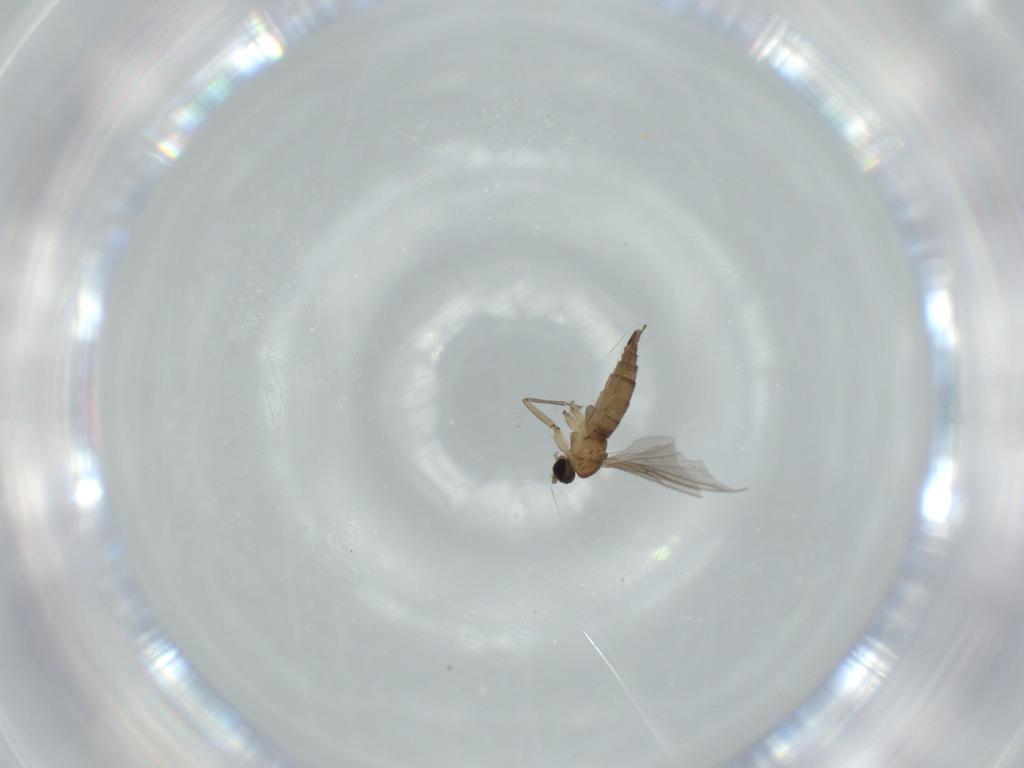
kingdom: Animalia
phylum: Arthropoda
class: Insecta
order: Diptera
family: Sciaridae
